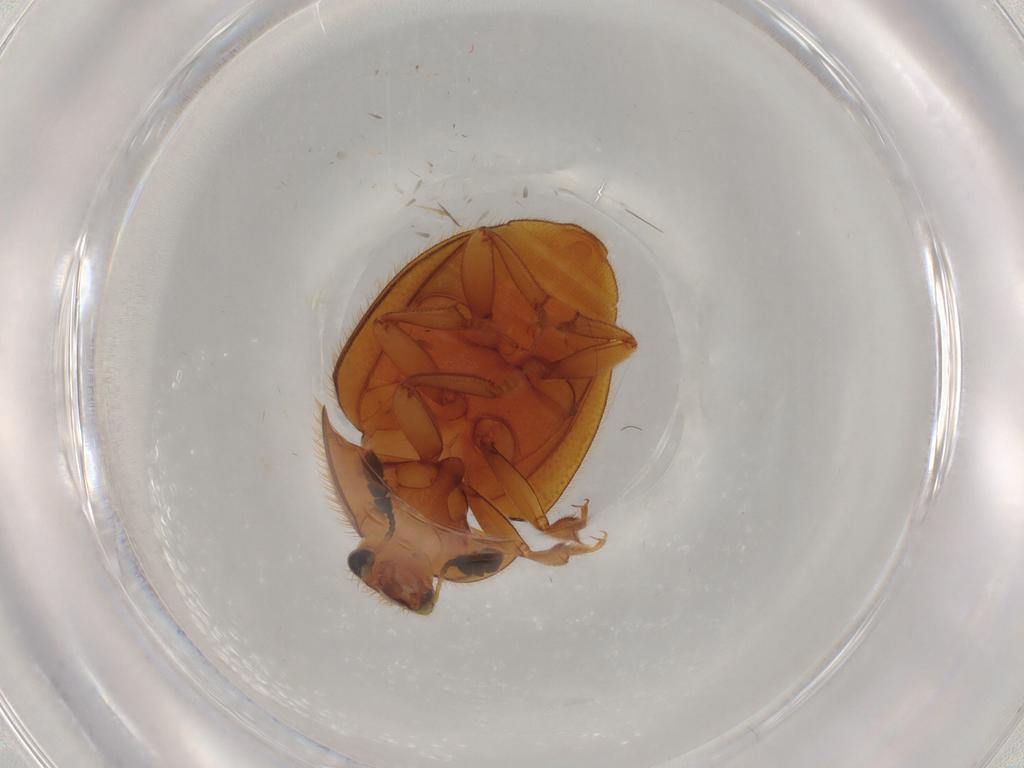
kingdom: Animalia
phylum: Arthropoda
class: Insecta
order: Coleoptera
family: Nitidulidae
